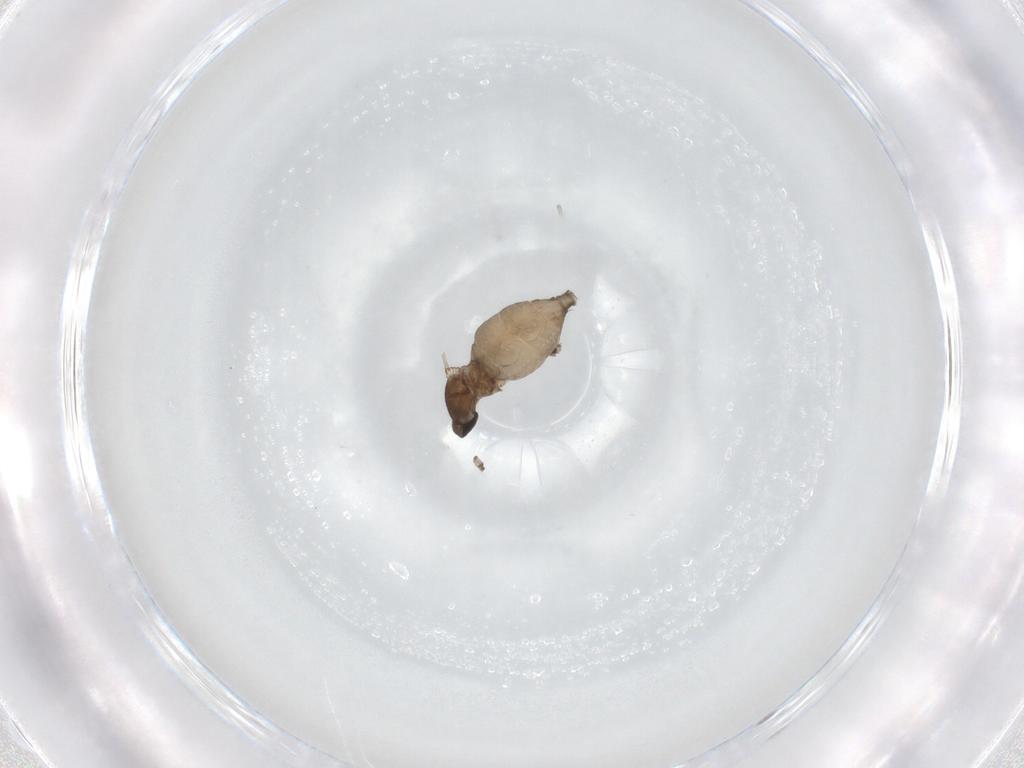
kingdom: Animalia
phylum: Arthropoda
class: Insecta
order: Diptera
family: Cecidomyiidae
